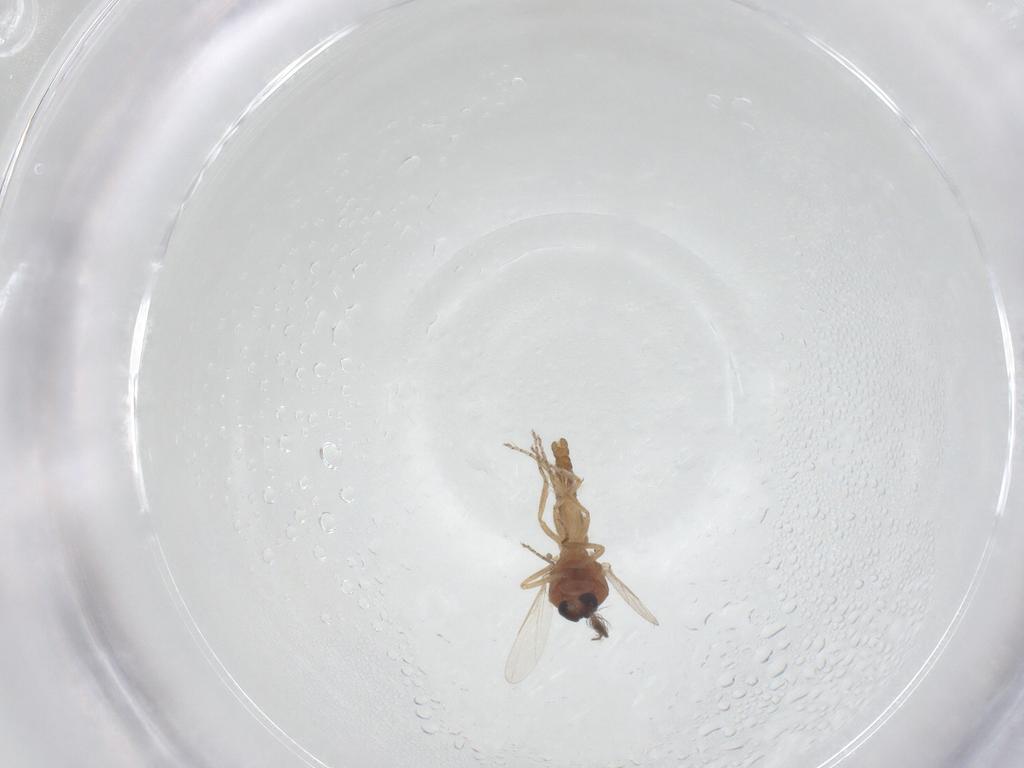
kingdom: Animalia
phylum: Arthropoda
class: Insecta
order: Diptera
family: Ceratopogonidae
